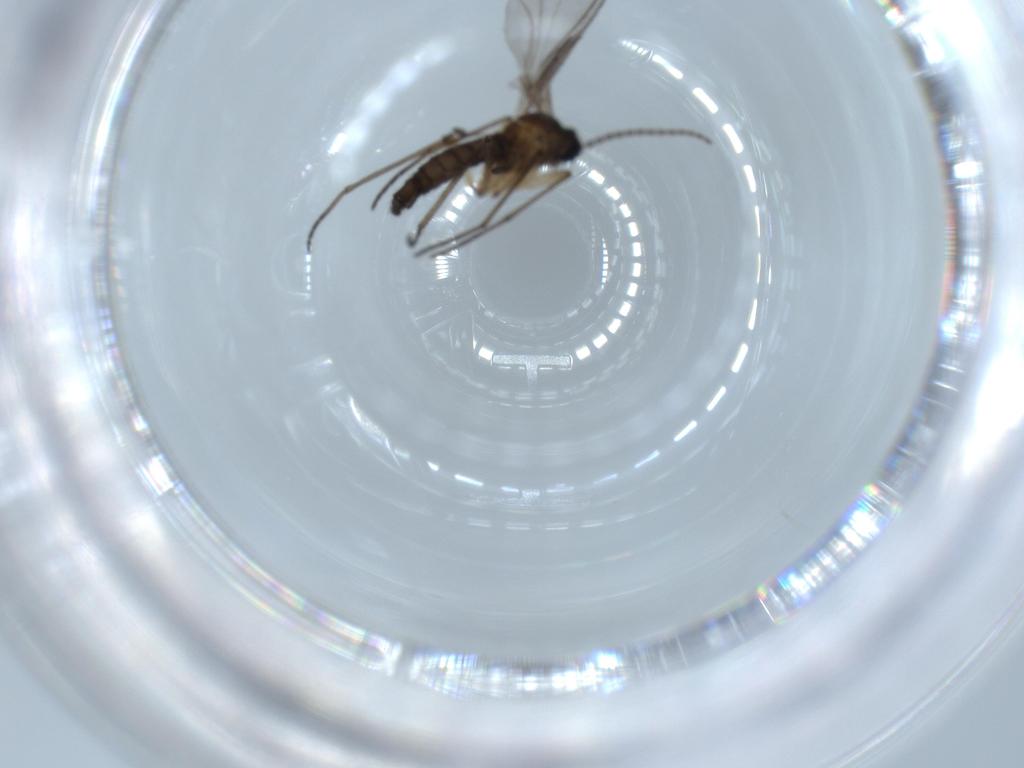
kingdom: Animalia
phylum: Arthropoda
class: Insecta
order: Diptera
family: Sciaridae
